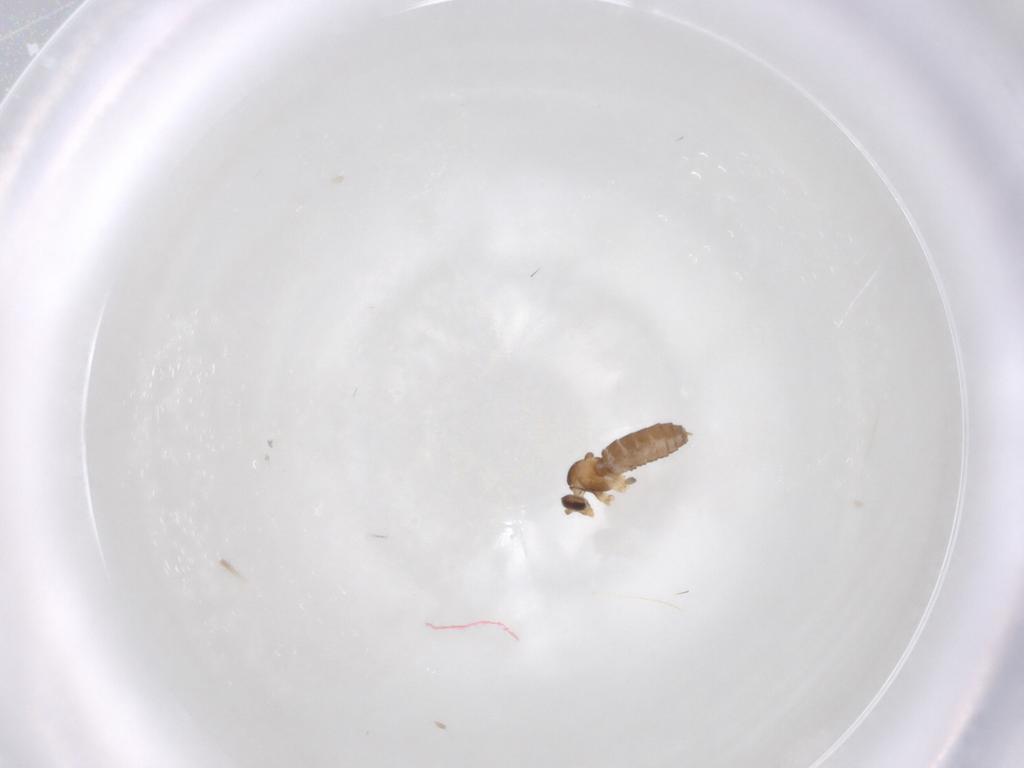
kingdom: Animalia
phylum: Arthropoda
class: Insecta
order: Diptera
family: Cecidomyiidae
